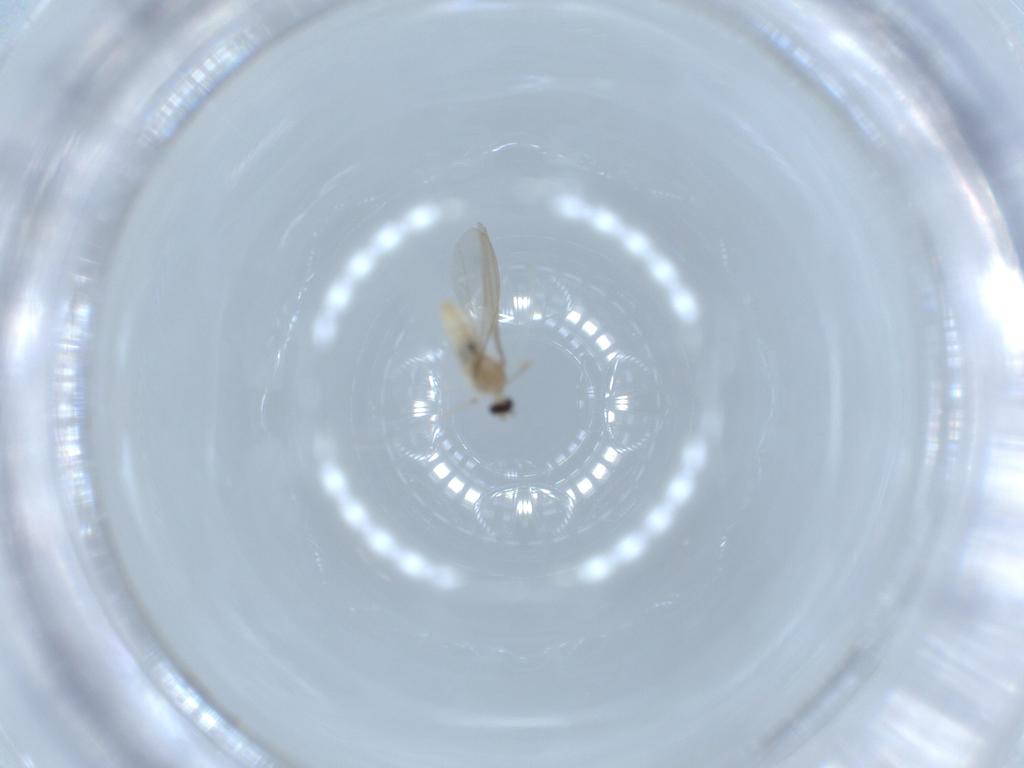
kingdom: Animalia
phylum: Arthropoda
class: Insecta
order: Diptera
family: Cecidomyiidae
